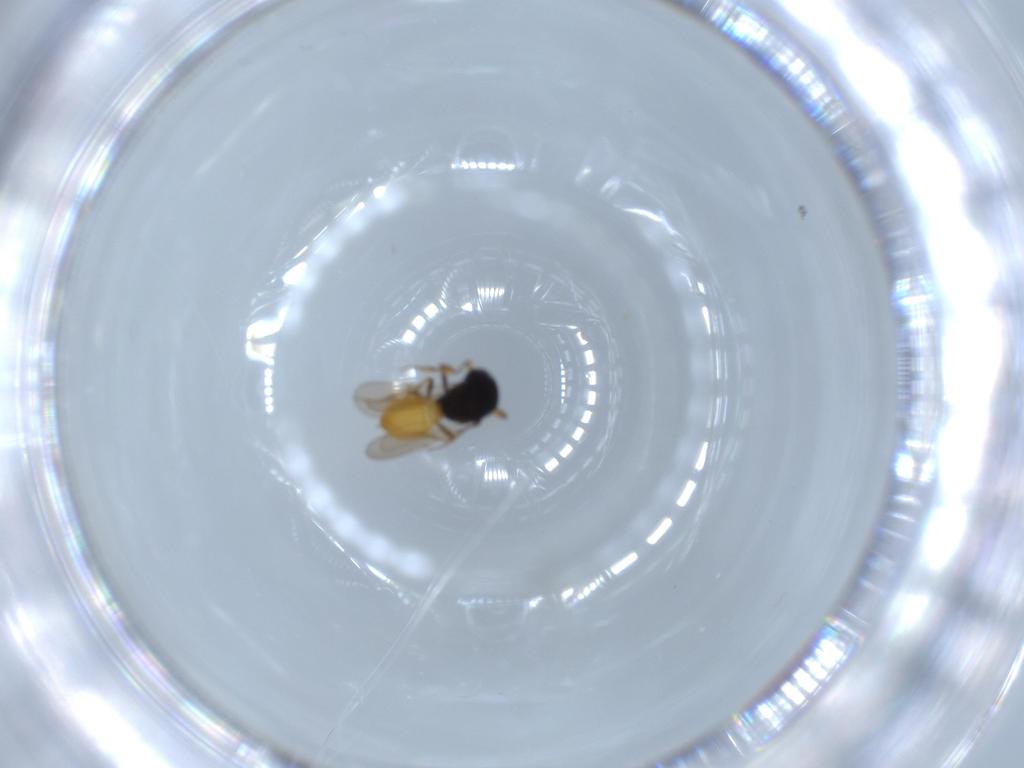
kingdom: Animalia
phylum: Arthropoda
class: Insecta
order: Hymenoptera
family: Scelionidae
